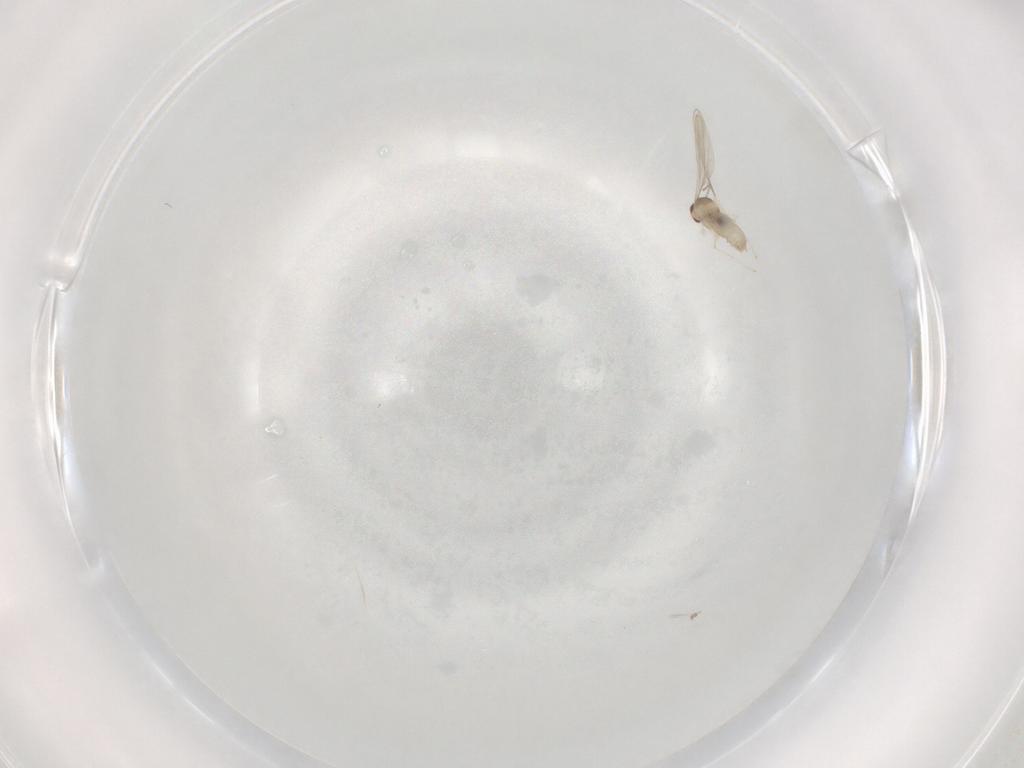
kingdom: Animalia
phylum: Arthropoda
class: Insecta
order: Diptera
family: Cecidomyiidae
